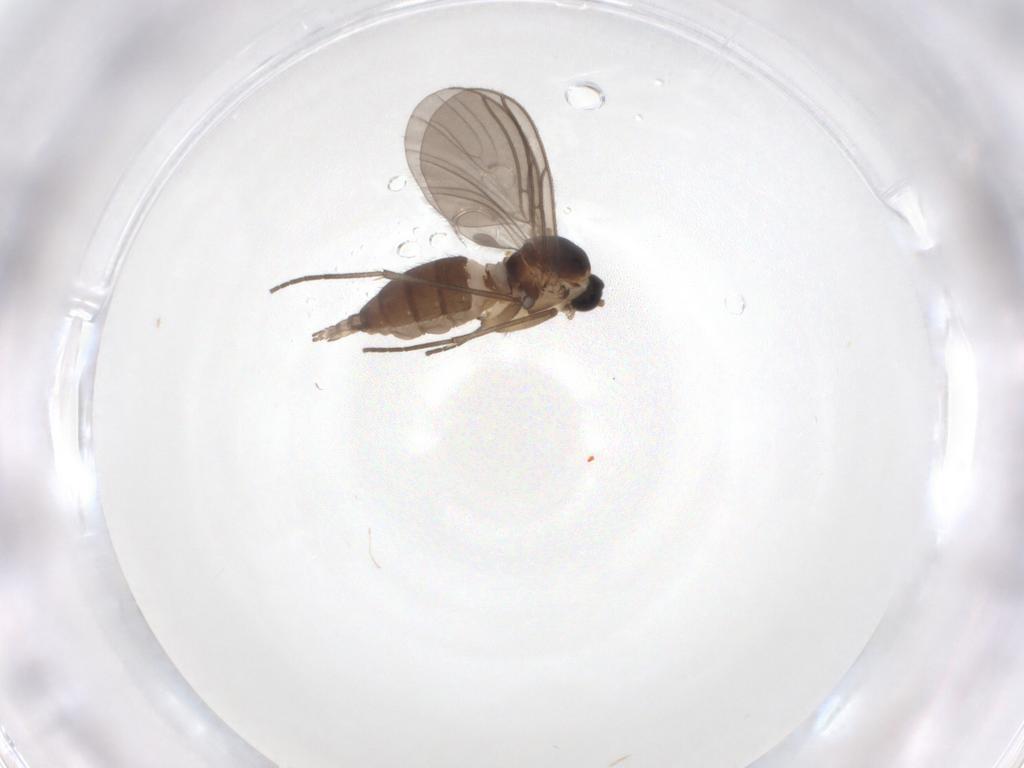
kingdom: Animalia
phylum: Arthropoda
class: Insecta
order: Diptera
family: Sciaridae
